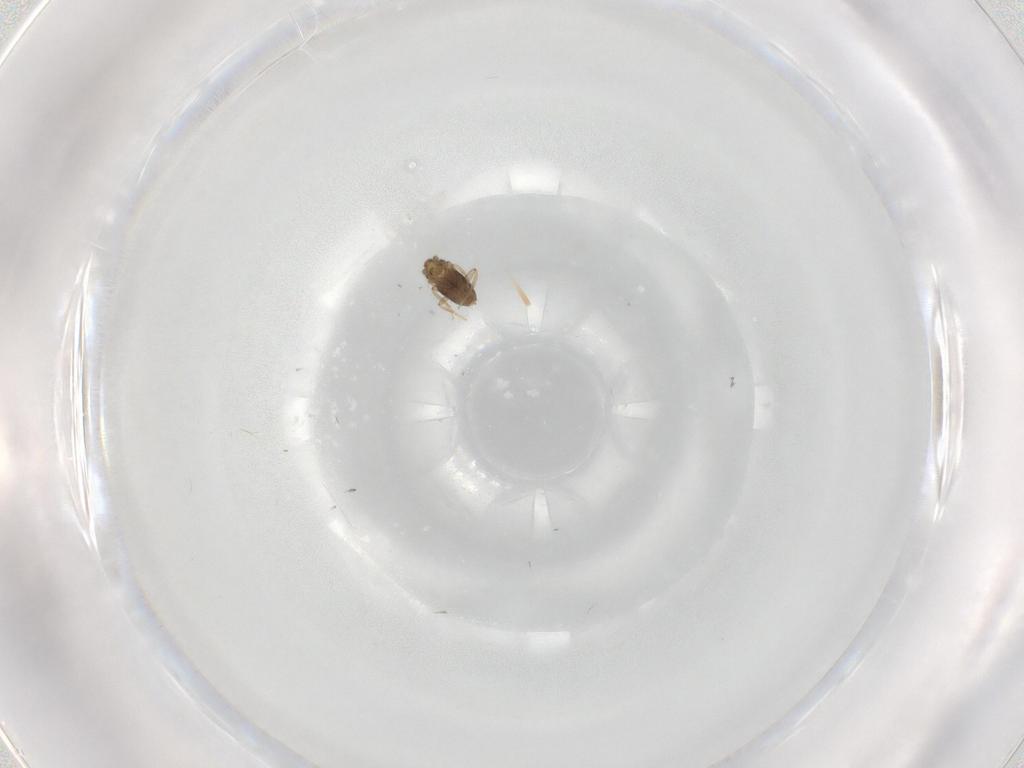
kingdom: Animalia
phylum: Arthropoda
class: Insecta
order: Diptera
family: Cecidomyiidae
